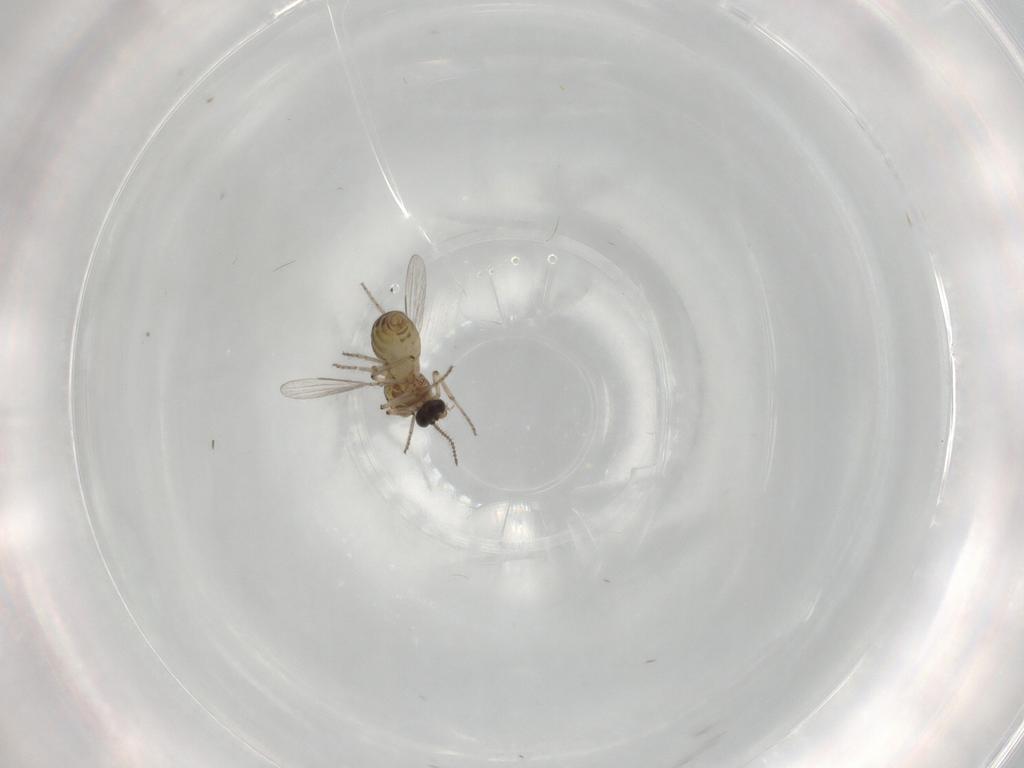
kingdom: Animalia
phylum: Arthropoda
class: Insecta
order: Diptera
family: Ceratopogonidae
